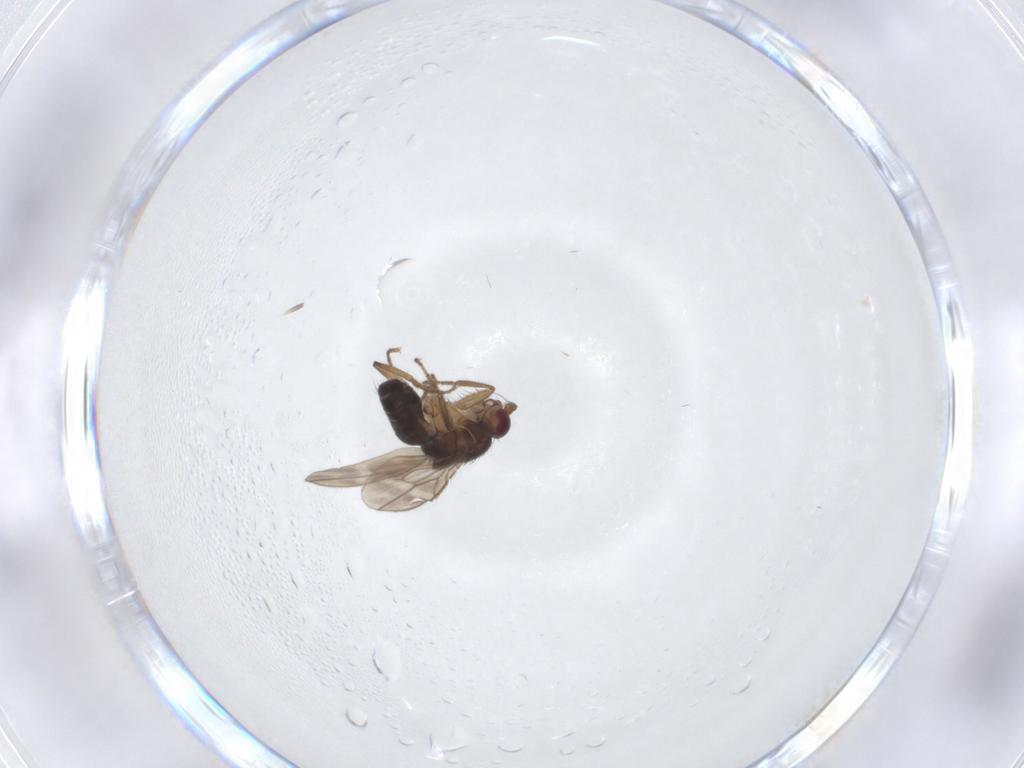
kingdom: Animalia
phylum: Arthropoda
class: Insecta
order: Diptera
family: Sphaeroceridae
